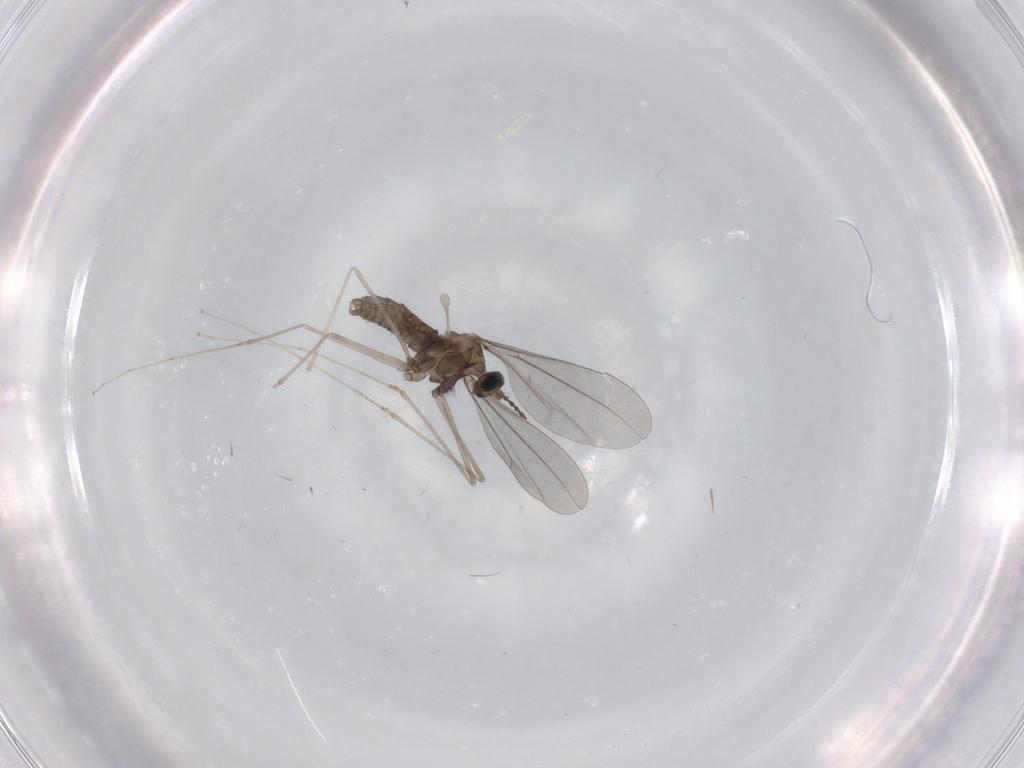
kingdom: Animalia
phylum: Arthropoda
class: Insecta
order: Diptera
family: Cecidomyiidae
